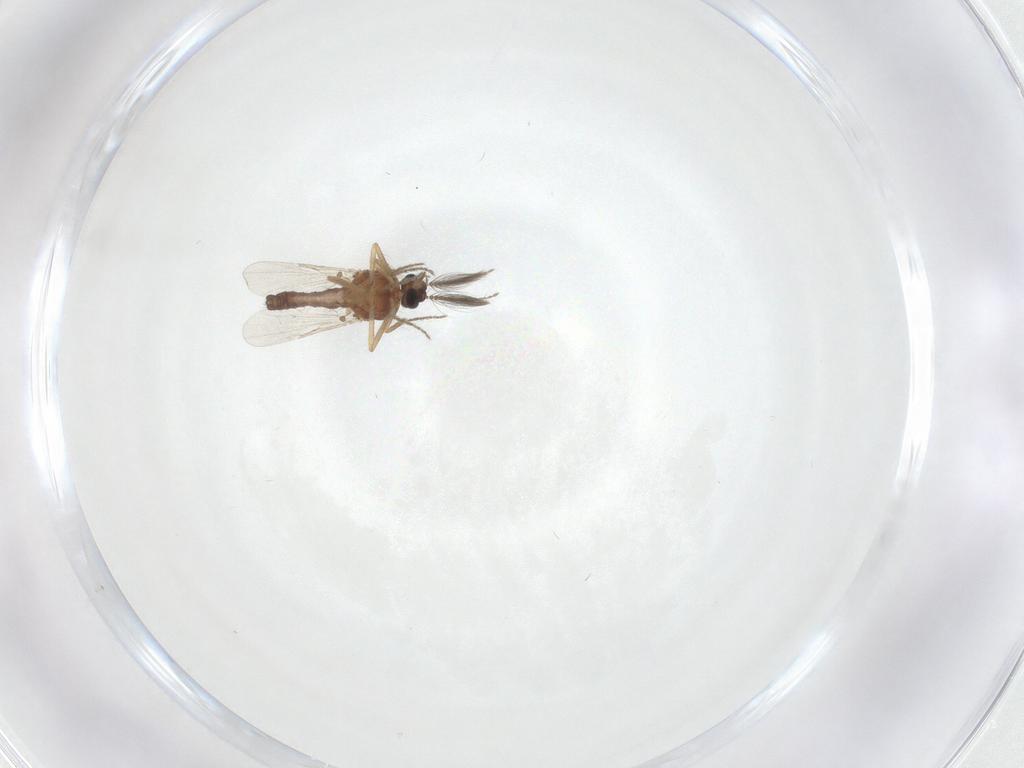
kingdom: Animalia
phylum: Arthropoda
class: Insecta
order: Diptera
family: Ceratopogonidae
